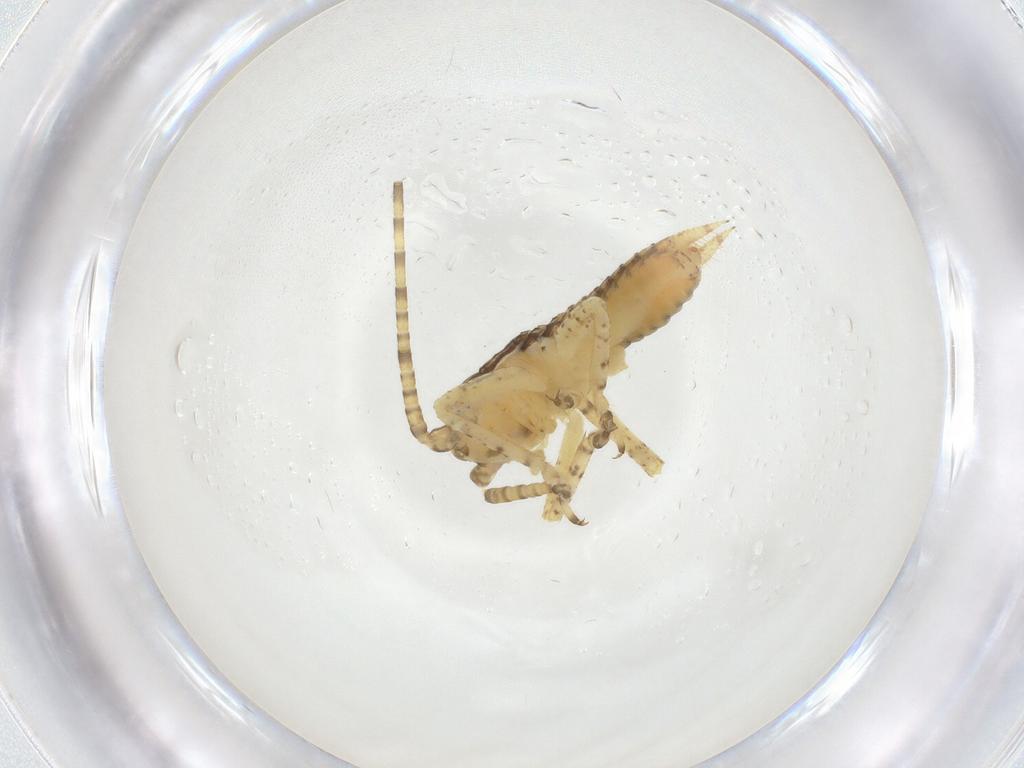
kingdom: Animalia
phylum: Arthropoda
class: Insecta
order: Orthoptera
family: Gryllidae
